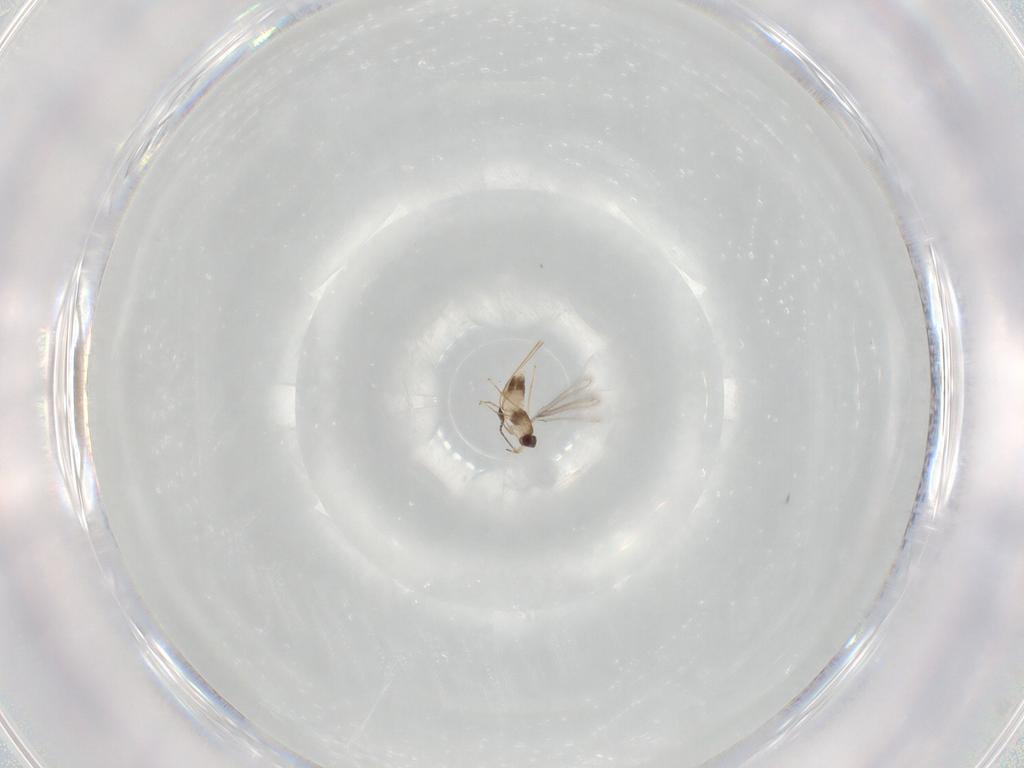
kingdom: Animalia
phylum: Arthropoda
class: Insecta
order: Hymenoptera
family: Mymaridae
